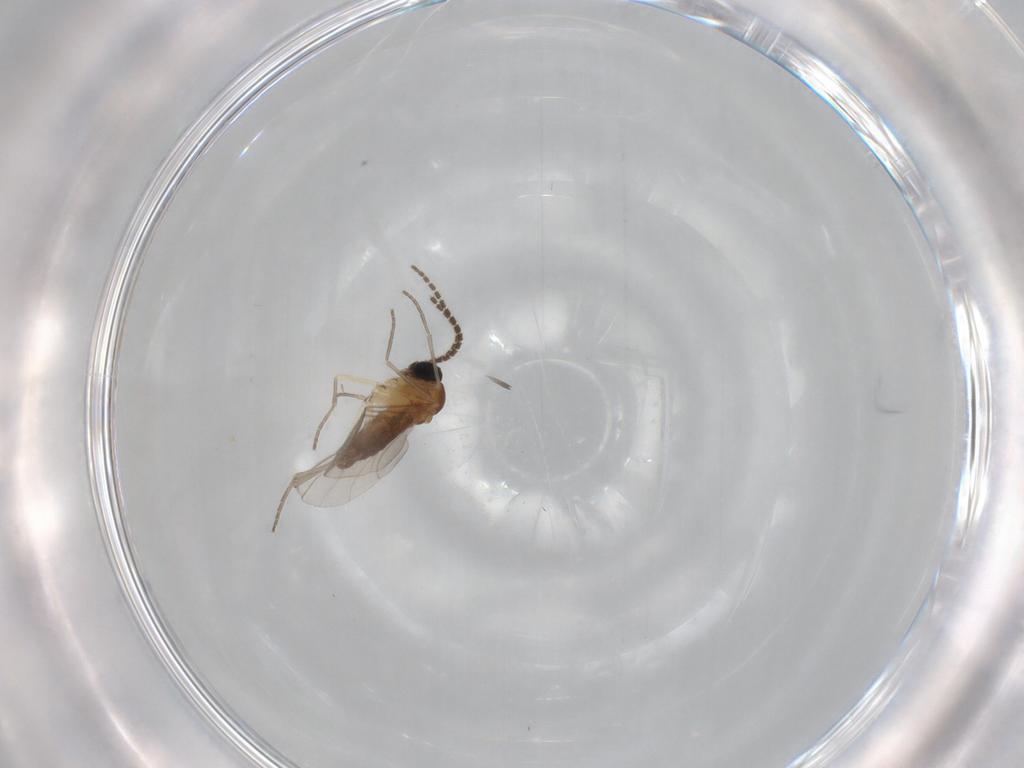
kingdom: Animalia
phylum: Arthropoda
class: Insecta
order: Diptera
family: Sciaridae
